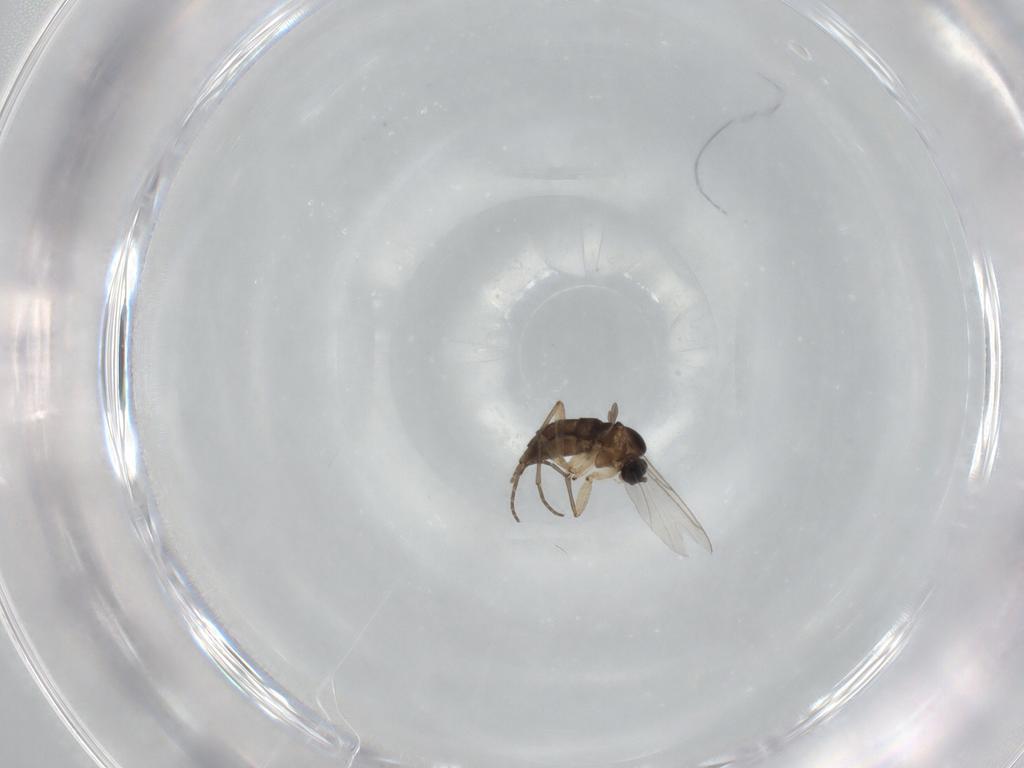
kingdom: Animalia
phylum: Arthropoda
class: Insecta
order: Diptera
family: Sciaridae
